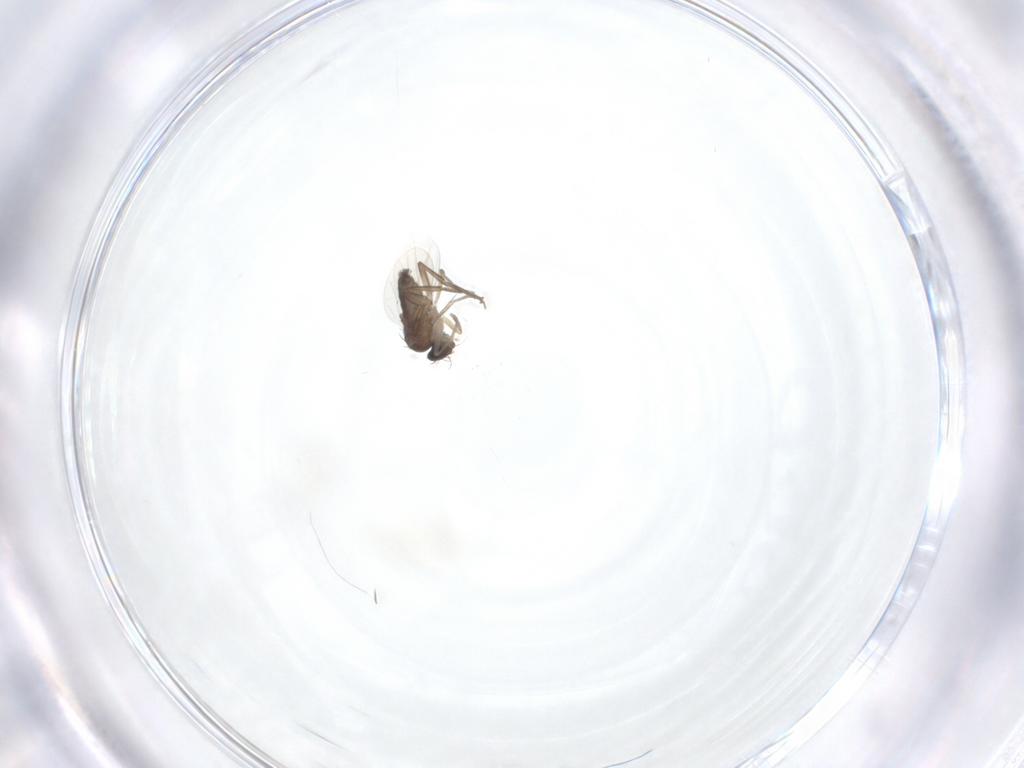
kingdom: Animalia
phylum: Arthropoda
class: Insecta
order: Diptera
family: Phoridae
